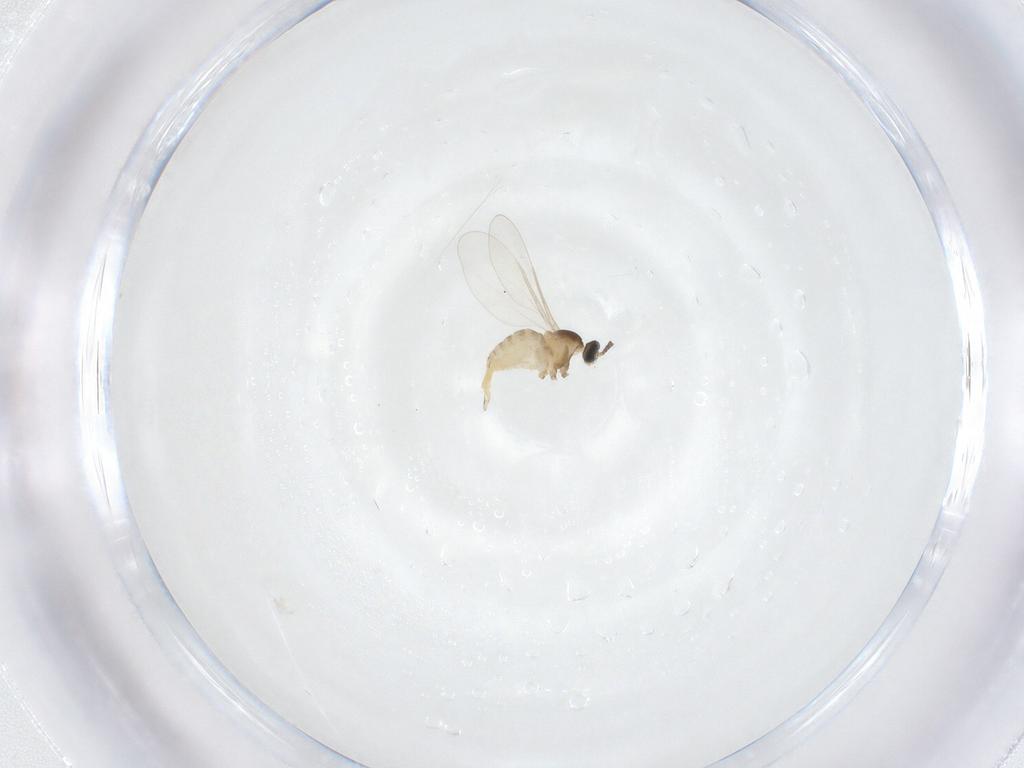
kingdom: Animalia
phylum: Arthropoda
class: Insecta
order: Diptera
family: Cecidomyiidae
